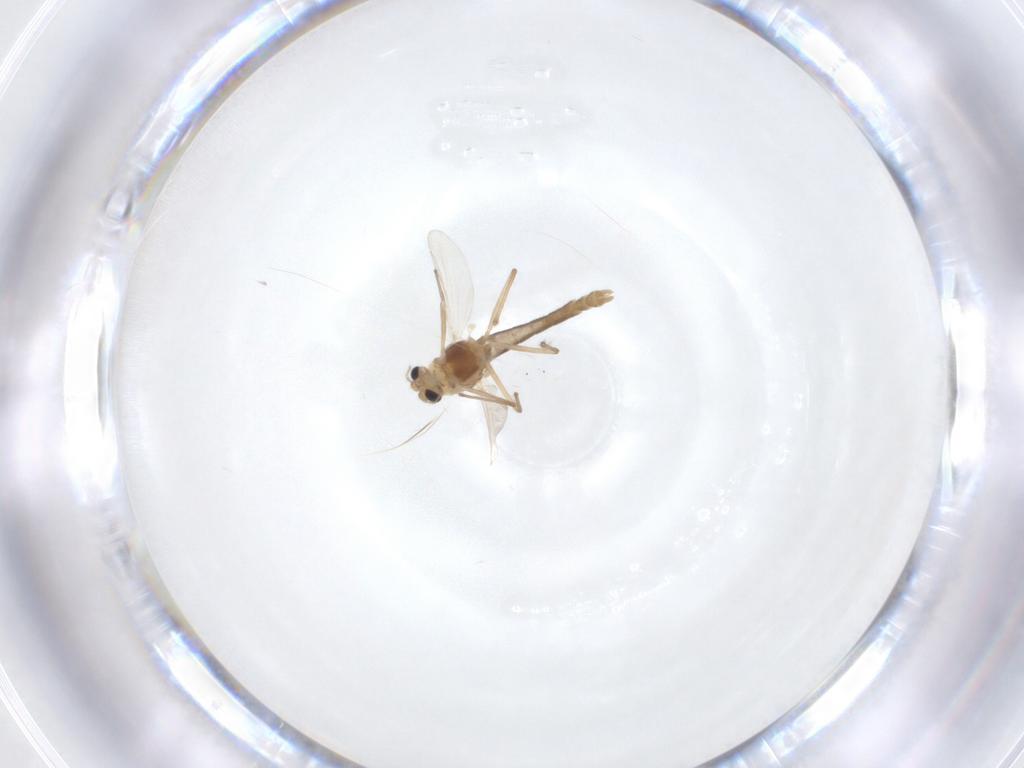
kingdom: Animalia
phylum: Arthropoda
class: Insecta
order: Diptera
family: Chironomidae
